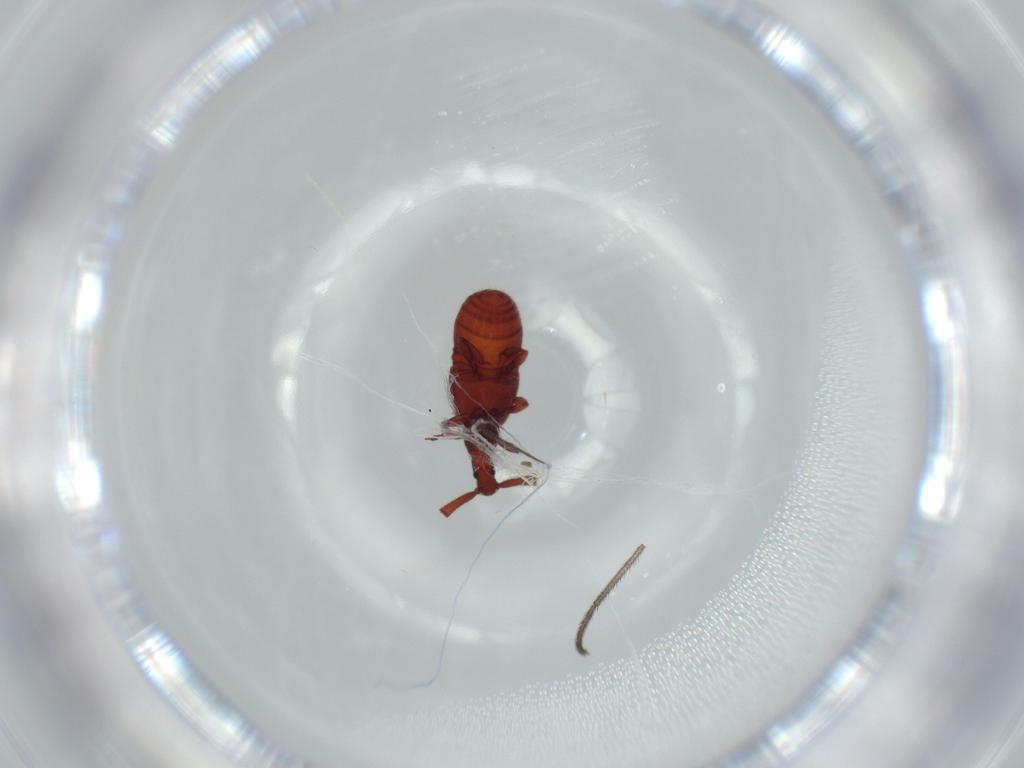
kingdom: Animalia
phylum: Arthropoda
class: Insecta
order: Coleoptera
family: Staphylinidae
